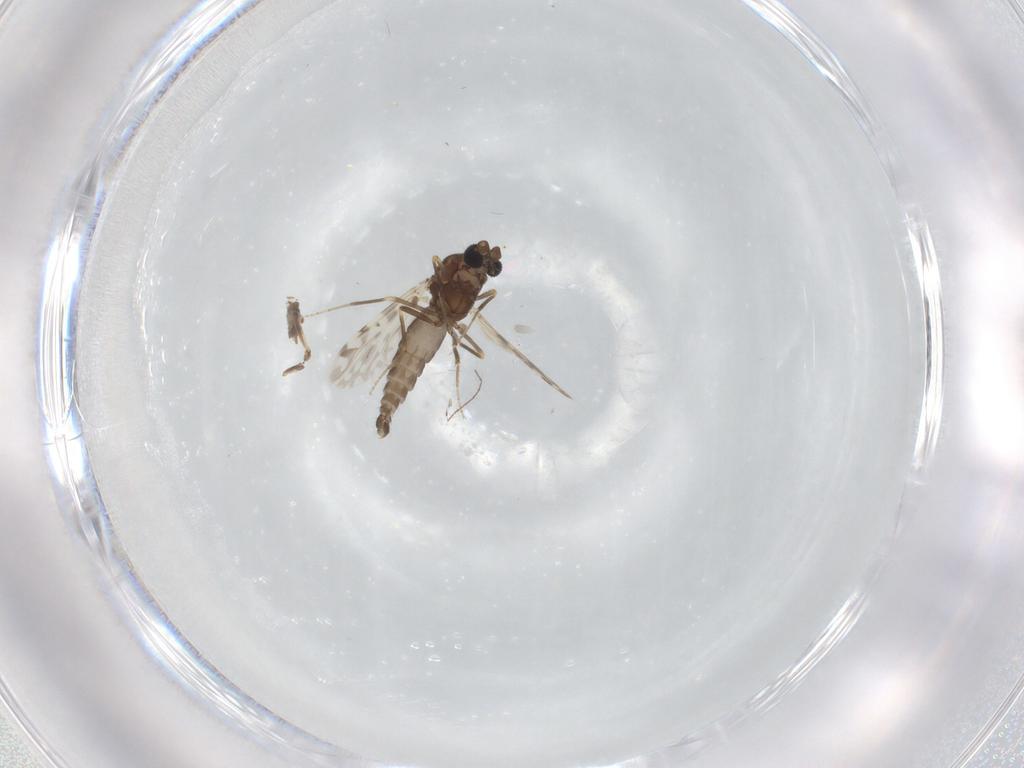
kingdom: Animalia
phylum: Arthropoda
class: Insecta
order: Diptera
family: Ceratopogonidae
